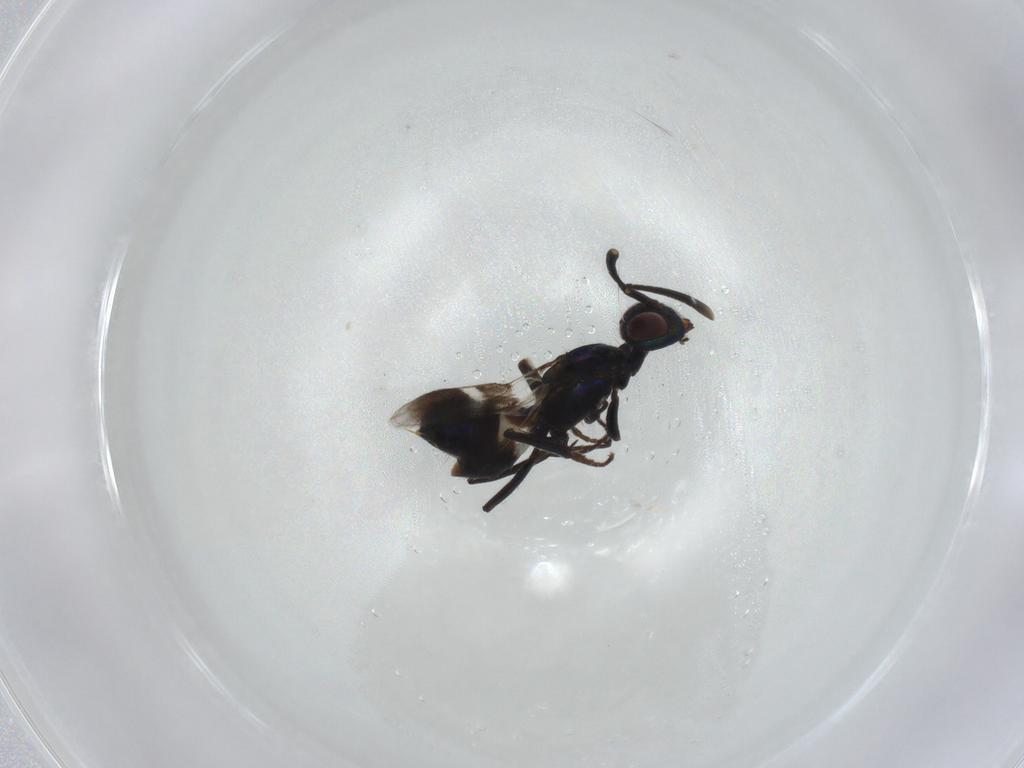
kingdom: Animalia
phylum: Arthropoda
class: Insecta
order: Hymenoptera
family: Eupelmidae
